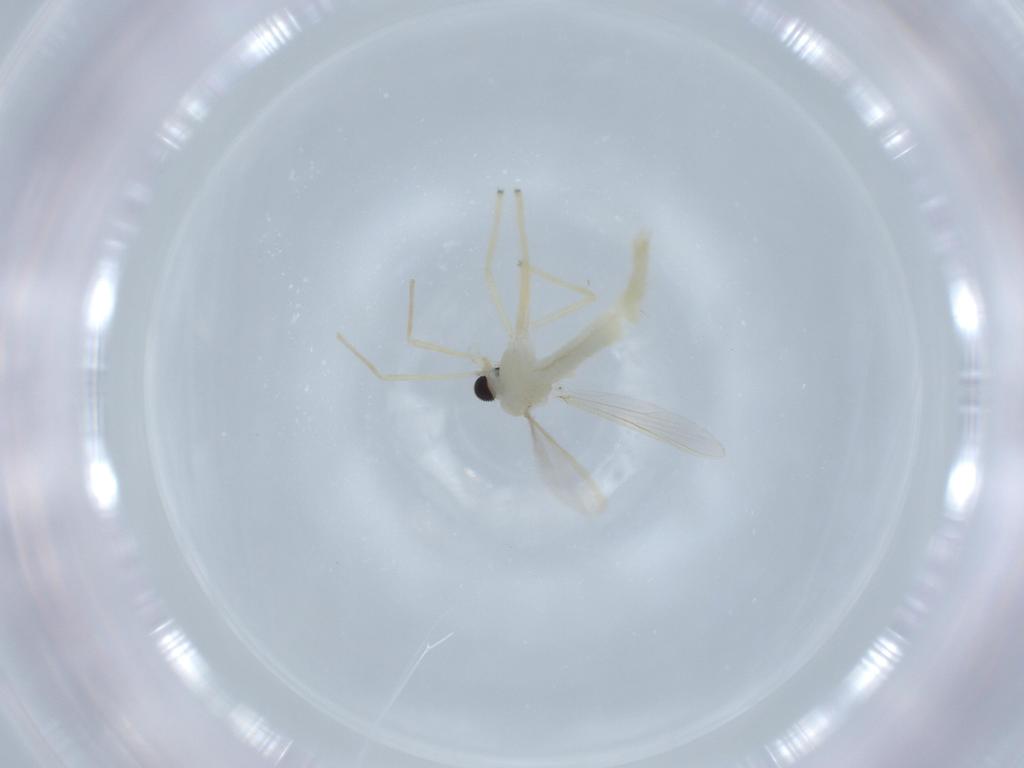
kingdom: Animalia
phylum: Arthropoda
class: Insecta
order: Diptera
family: Chironomidae
